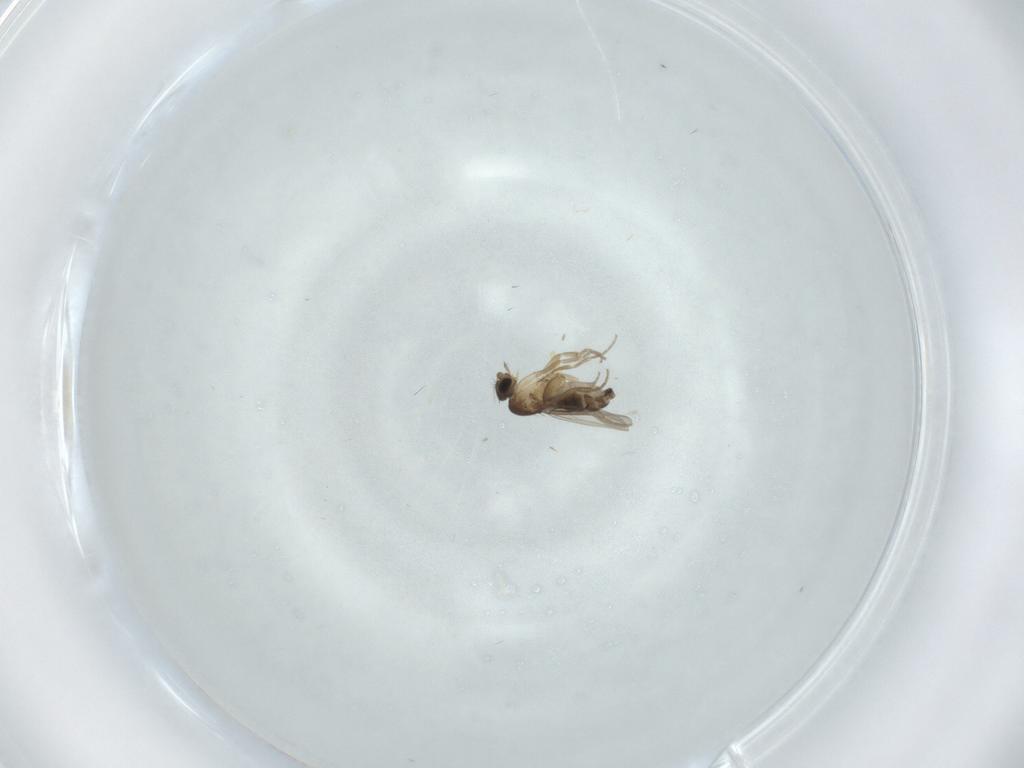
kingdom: Animalia
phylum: Arthropoda
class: Insecta
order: Diptera
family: Phoridae
